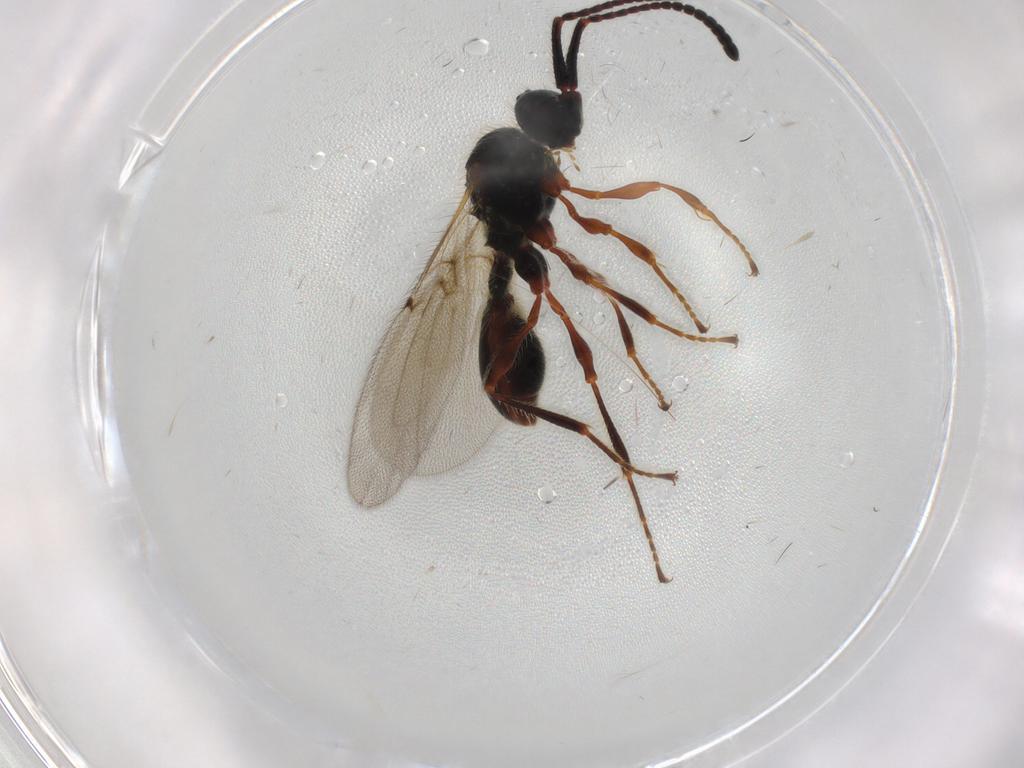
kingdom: Animalia
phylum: Arthropoda
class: Insecta
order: Hymenoptera
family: Diapriidae
